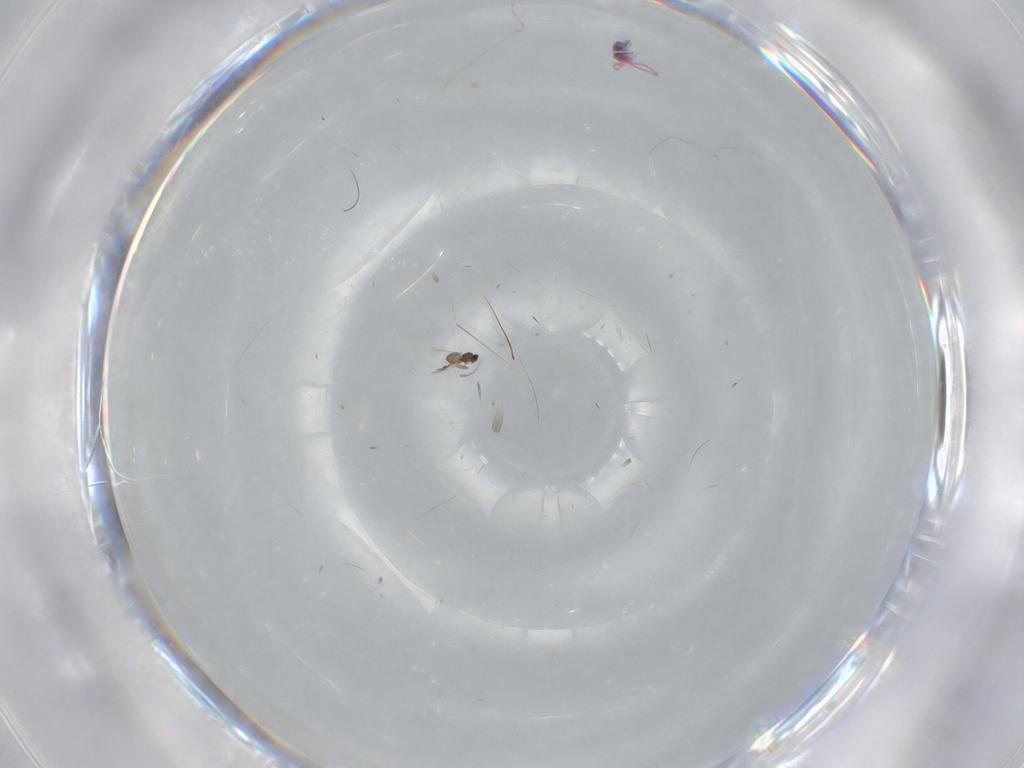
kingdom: Animalia
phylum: Arthropoda
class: Insecta
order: Hymenoptera
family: Mymaridae
